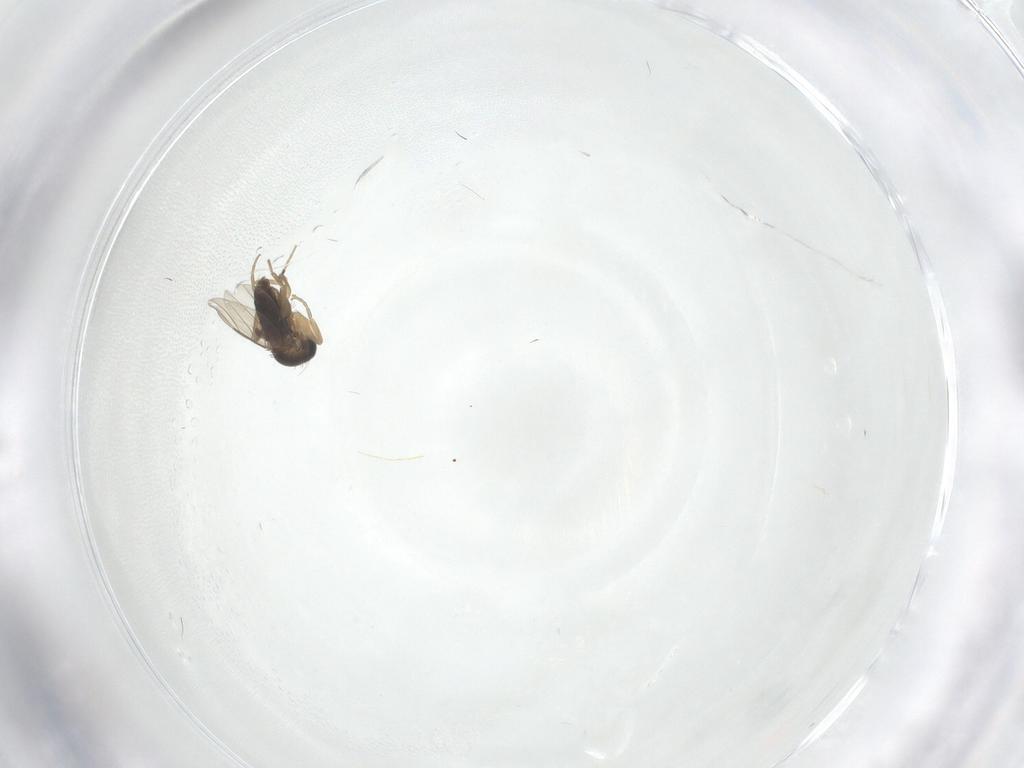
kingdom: Animalia
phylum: Arthropoda
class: Insecta
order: Diptera
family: Phoridae
